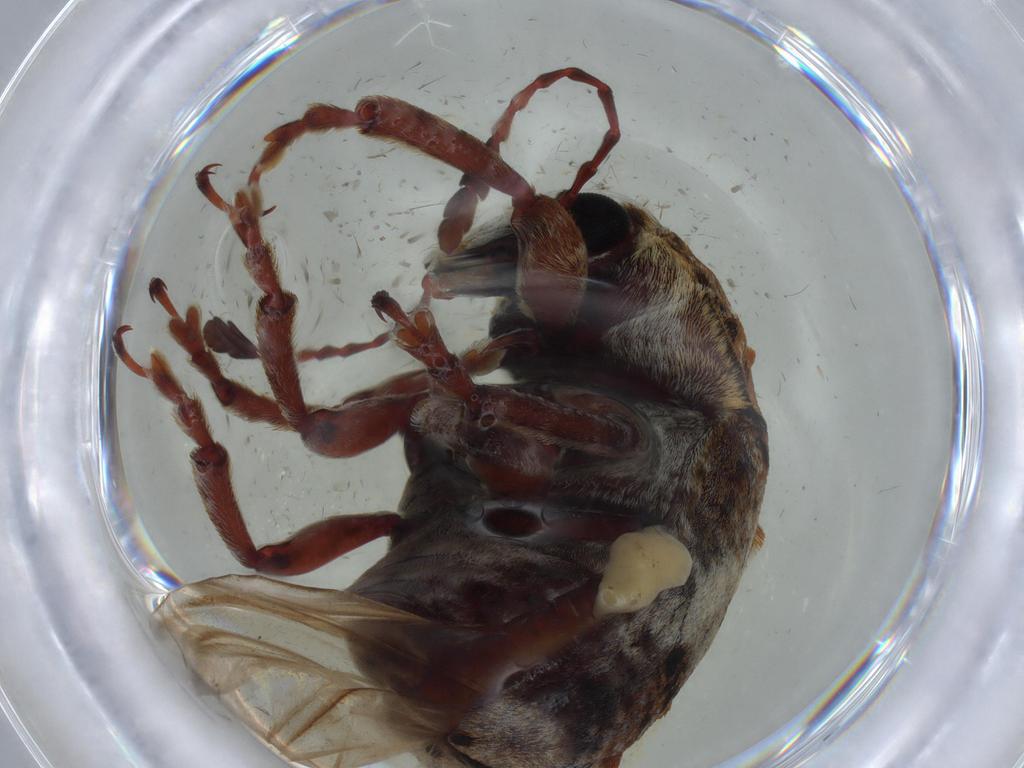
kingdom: Animalia
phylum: Arthropoda
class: Insecta
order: Coleoptera
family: Anthribidae
